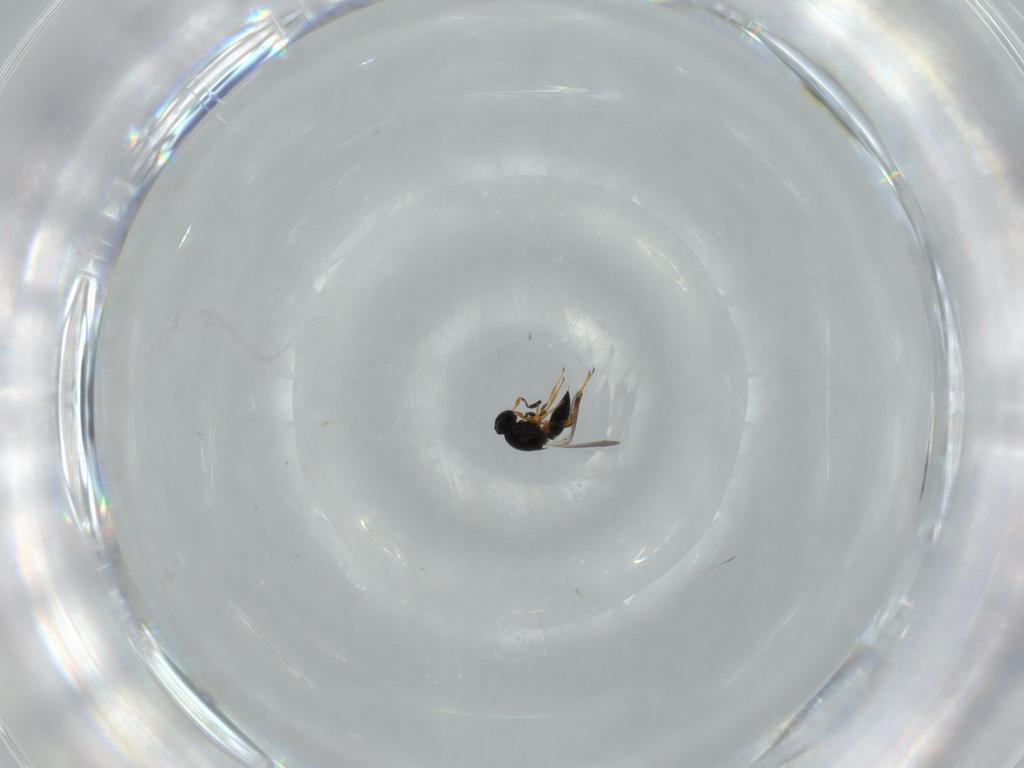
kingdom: Animalia
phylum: Arthropoda
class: Insecta
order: Hymenoptera
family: Platygastridae
